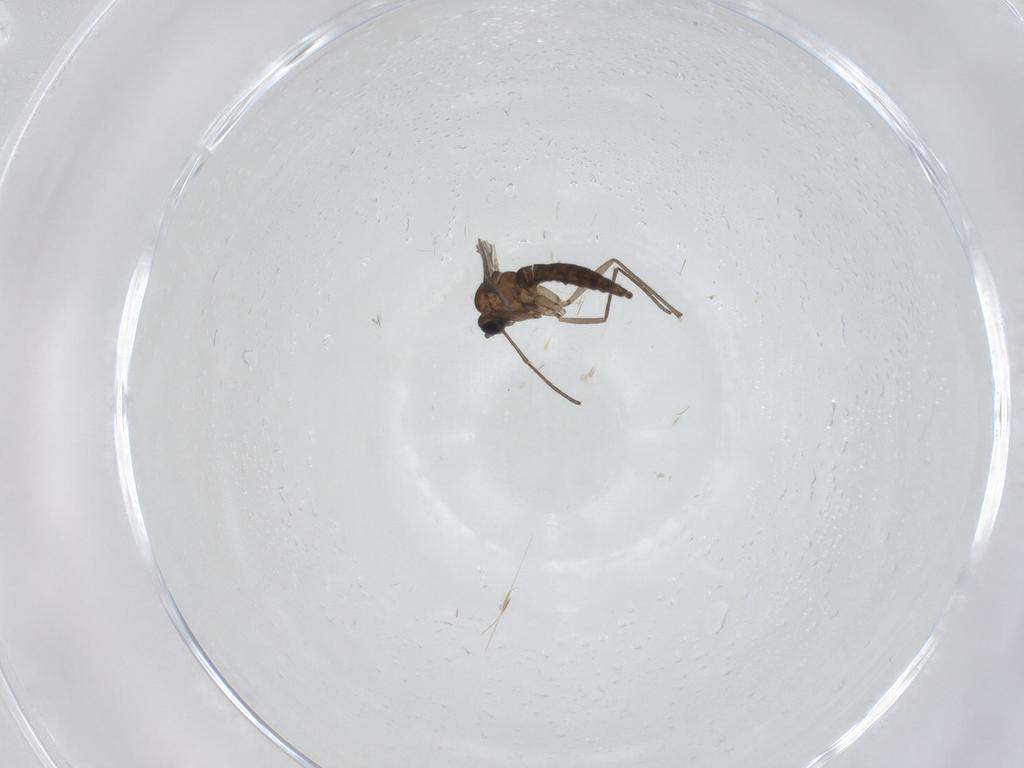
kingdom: Animalia
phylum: Arthropoda
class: Insecta
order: Diptera
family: Sciaridae
